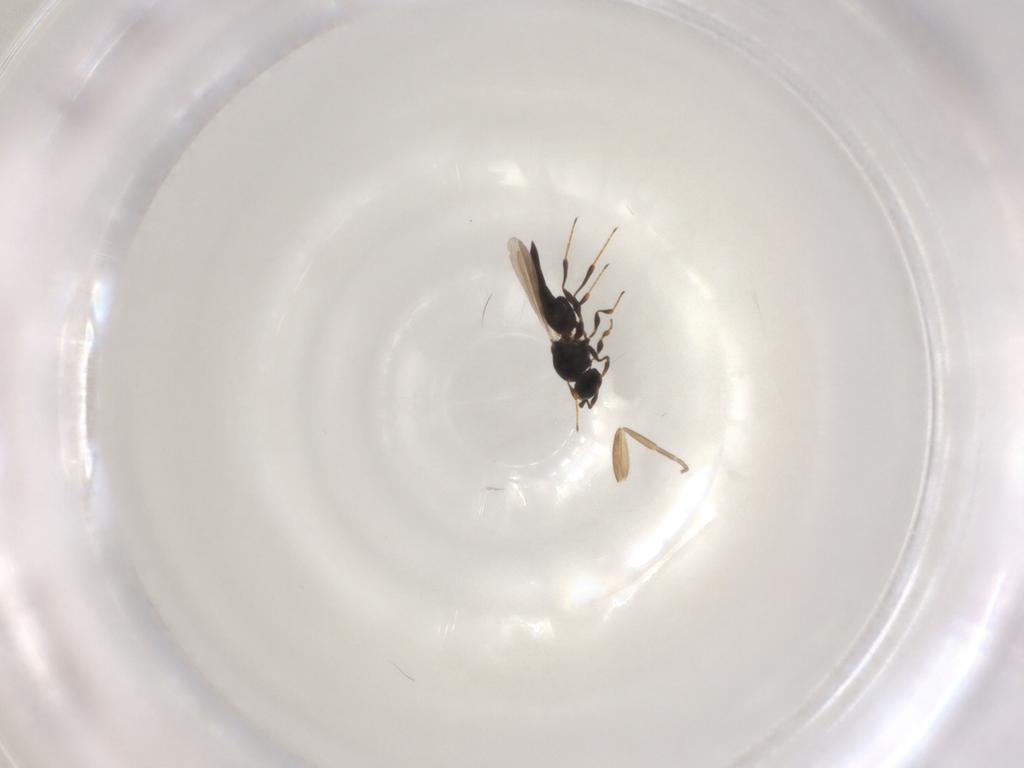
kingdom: Animalia
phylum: Arthropoda
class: Insecta
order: Hymenoptera
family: Platygastridae
